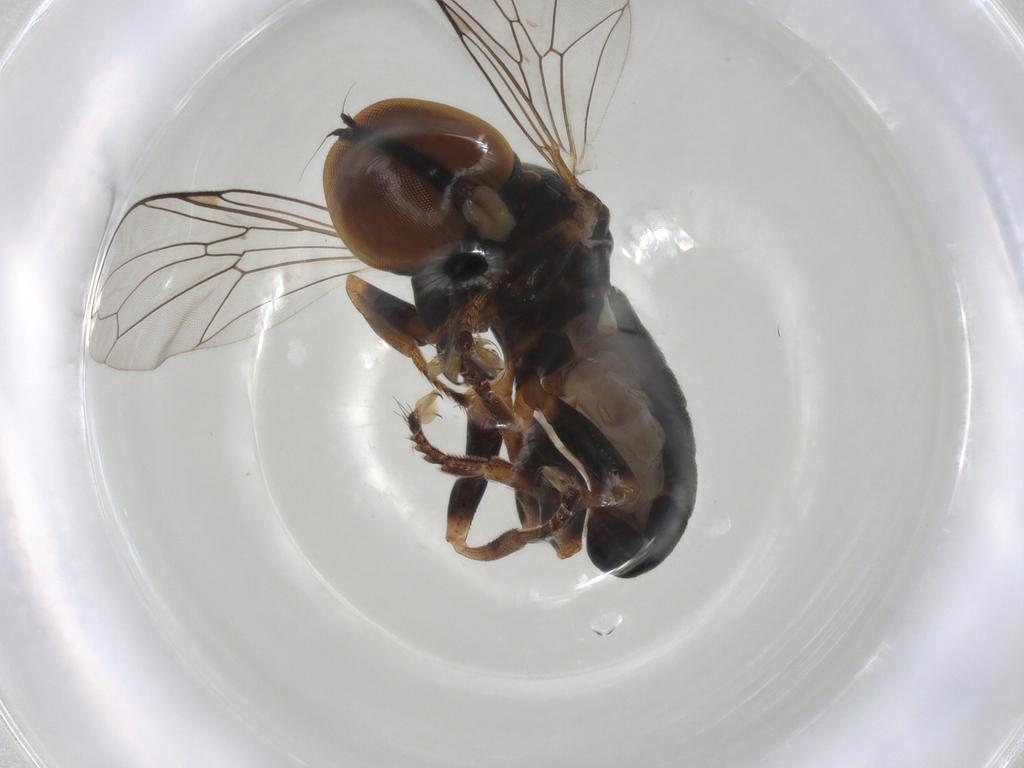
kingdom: Animalia
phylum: Arthropoda
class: Insecta
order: Diptera
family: Pipunculidae
